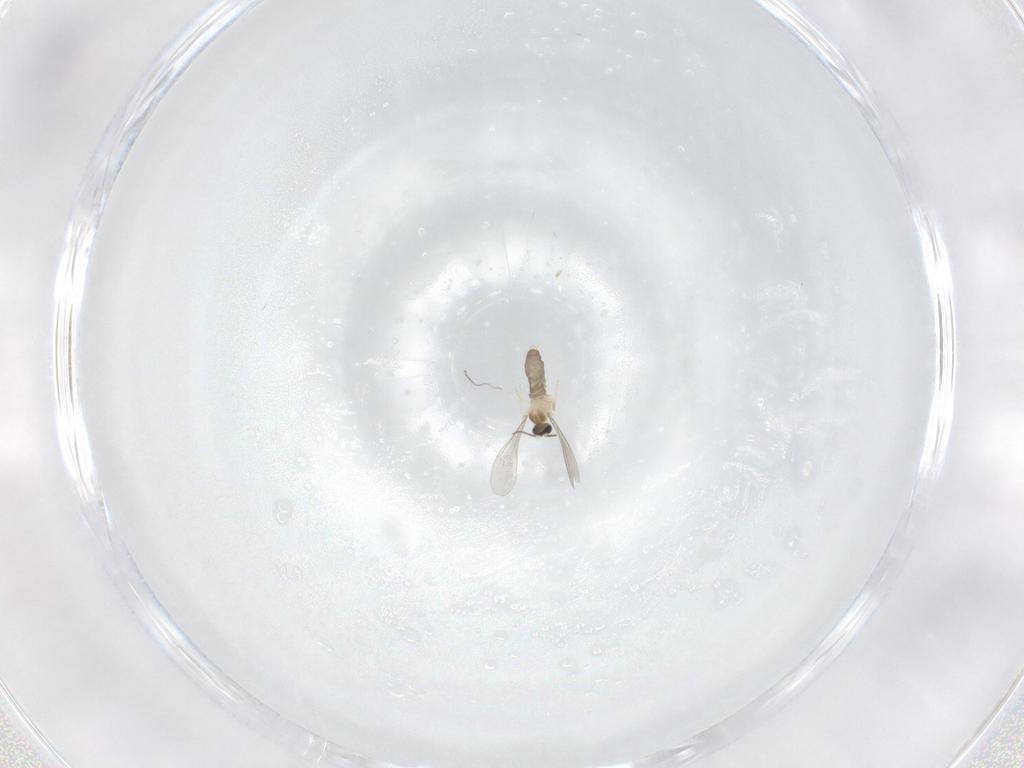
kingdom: Animalia
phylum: Arthropoda
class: Insecta
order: Diptera
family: Cecidomyiidae
